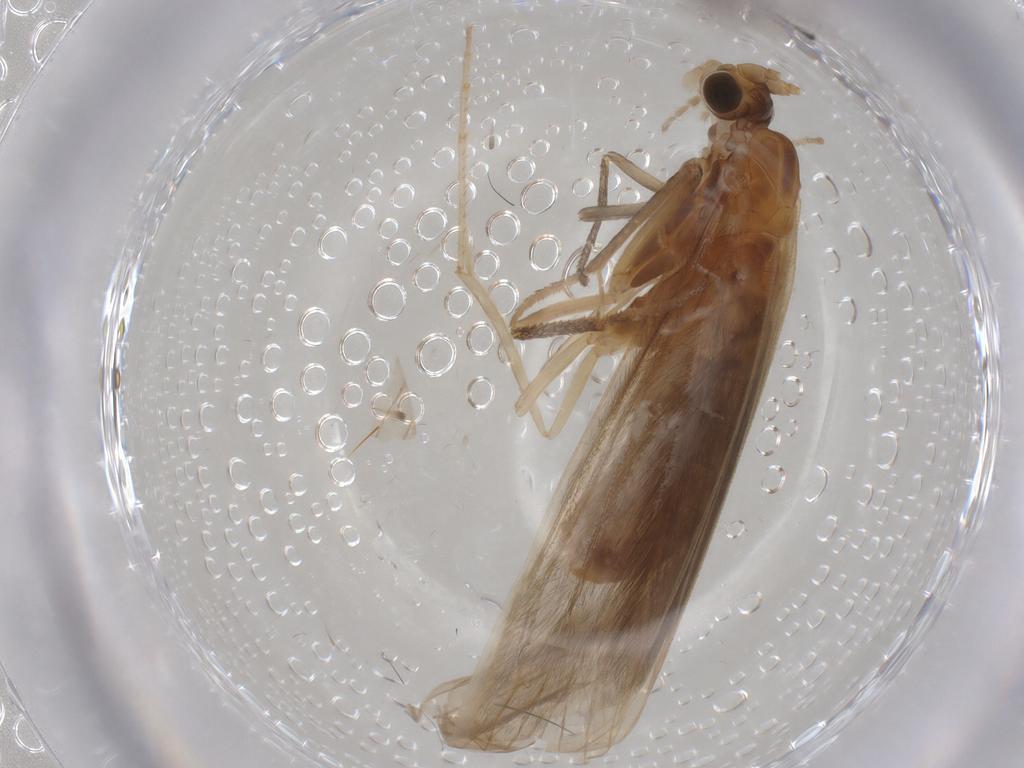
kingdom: Animalia
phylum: Arthropoda
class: Insecta
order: Trichoptera
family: Leptoceridae
